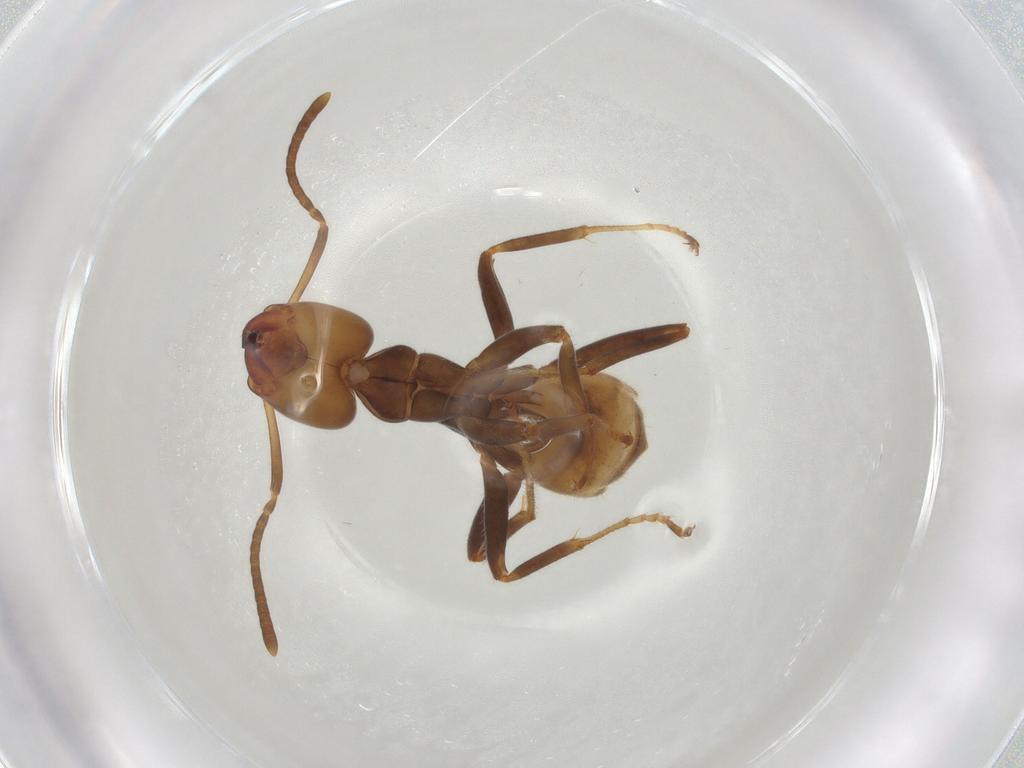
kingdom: Animalia
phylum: Arthropoda
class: Insecta
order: Hymenoptera
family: Formicidae
